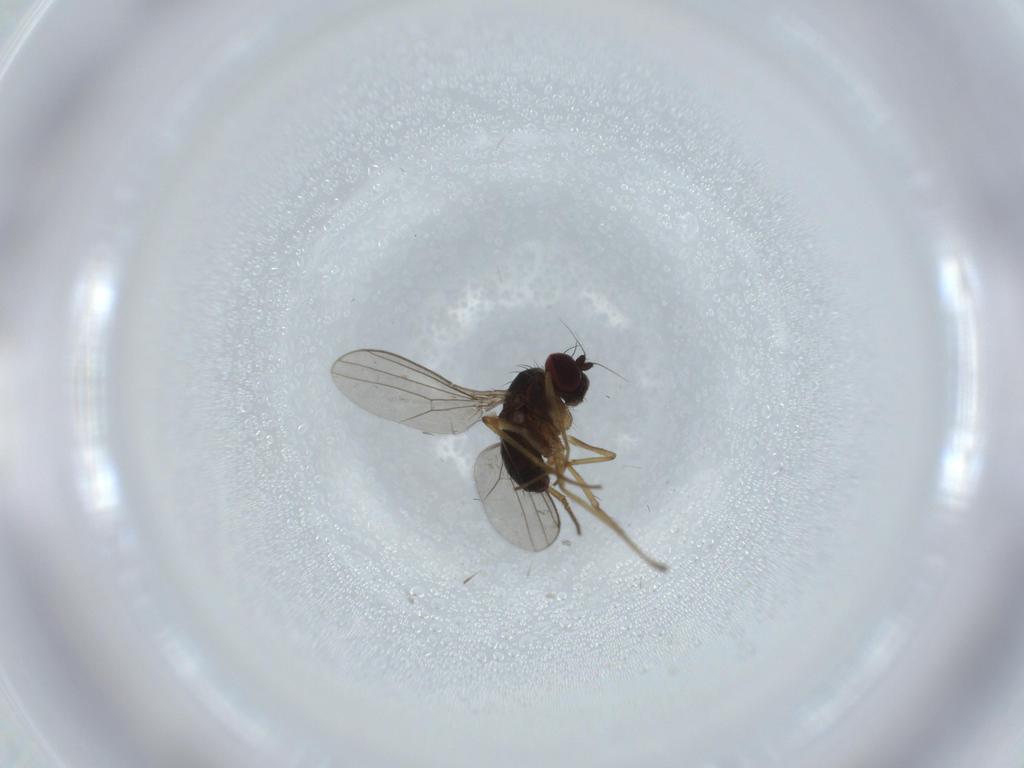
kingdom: Animalia
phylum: Arthropoda
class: Insecta
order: Diptera
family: Dolichopodidae
